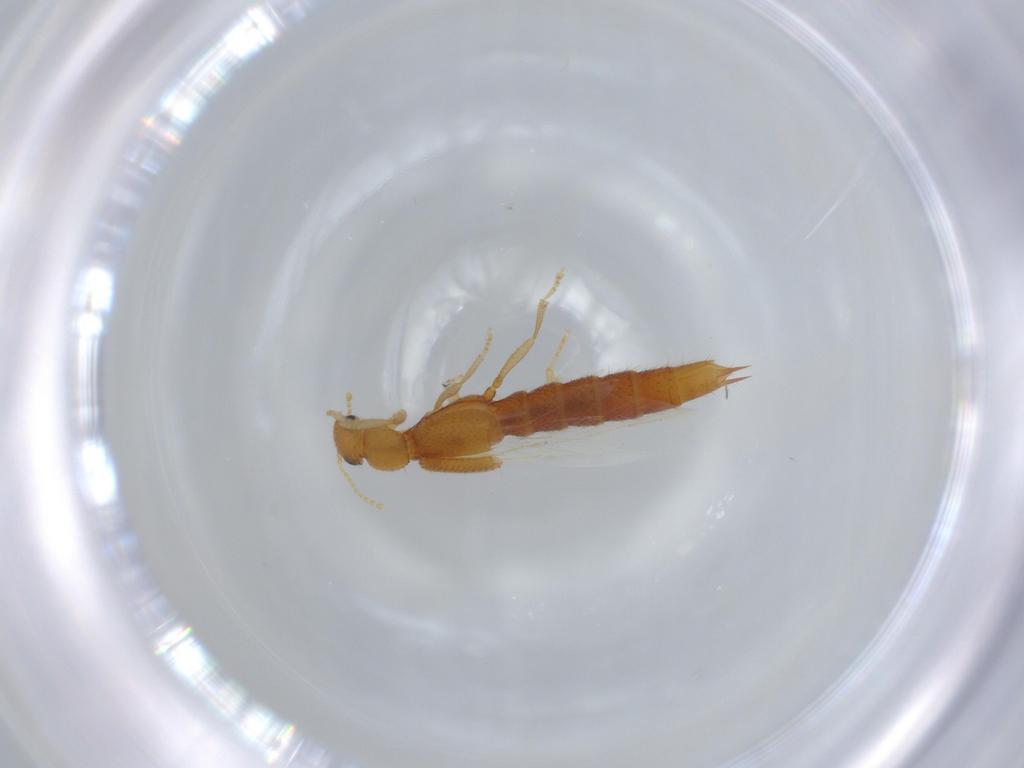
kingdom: Animalia
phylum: Arthropoda
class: Insecta
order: Coleoptera
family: Staphylinidae
